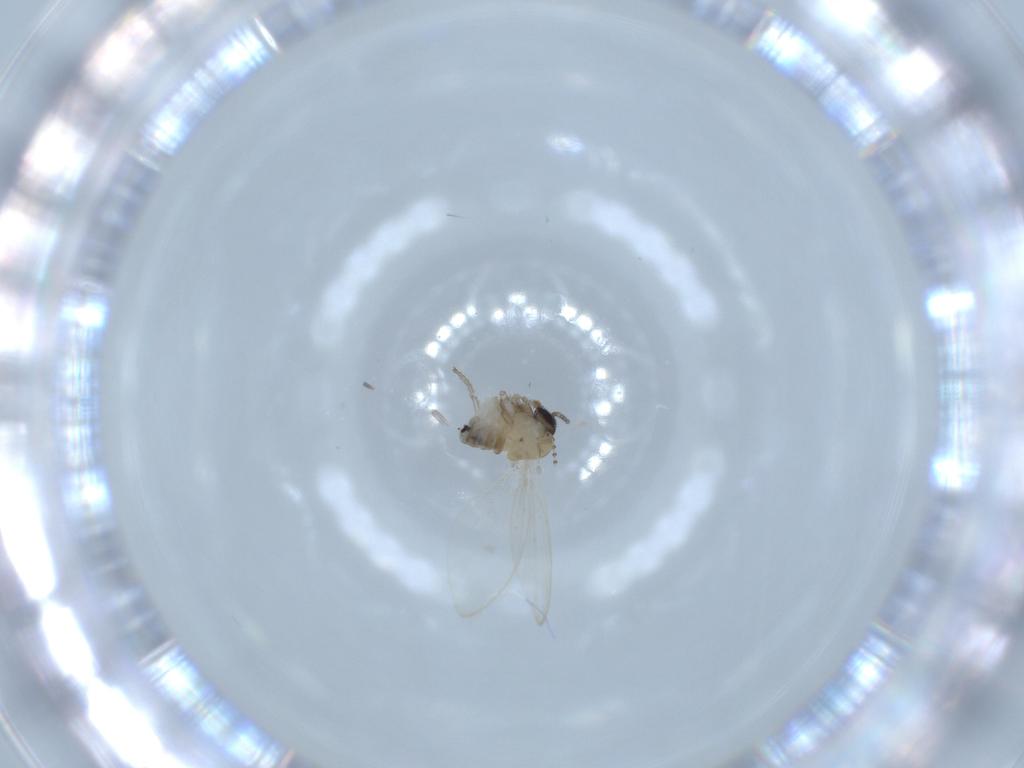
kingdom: Animalia
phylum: Arthropoda
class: Insecta
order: Diptera
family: Psychodidae
